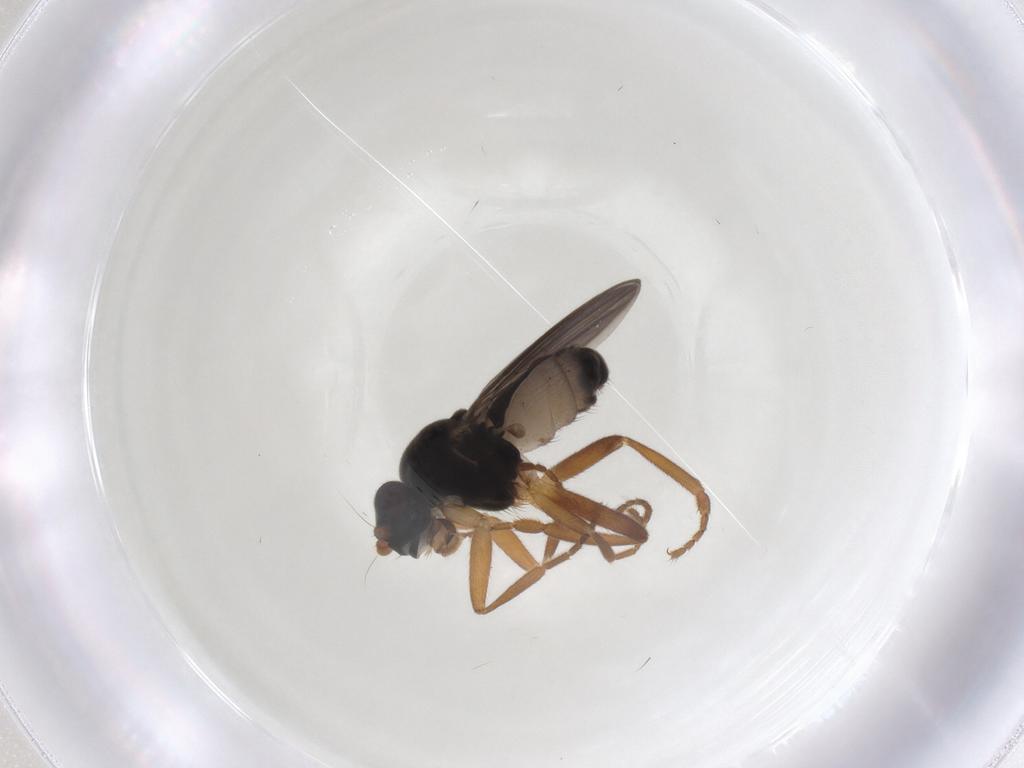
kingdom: Animalia
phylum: Arthropoda
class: Insecta
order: Diptera
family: Sphaeroceridae
